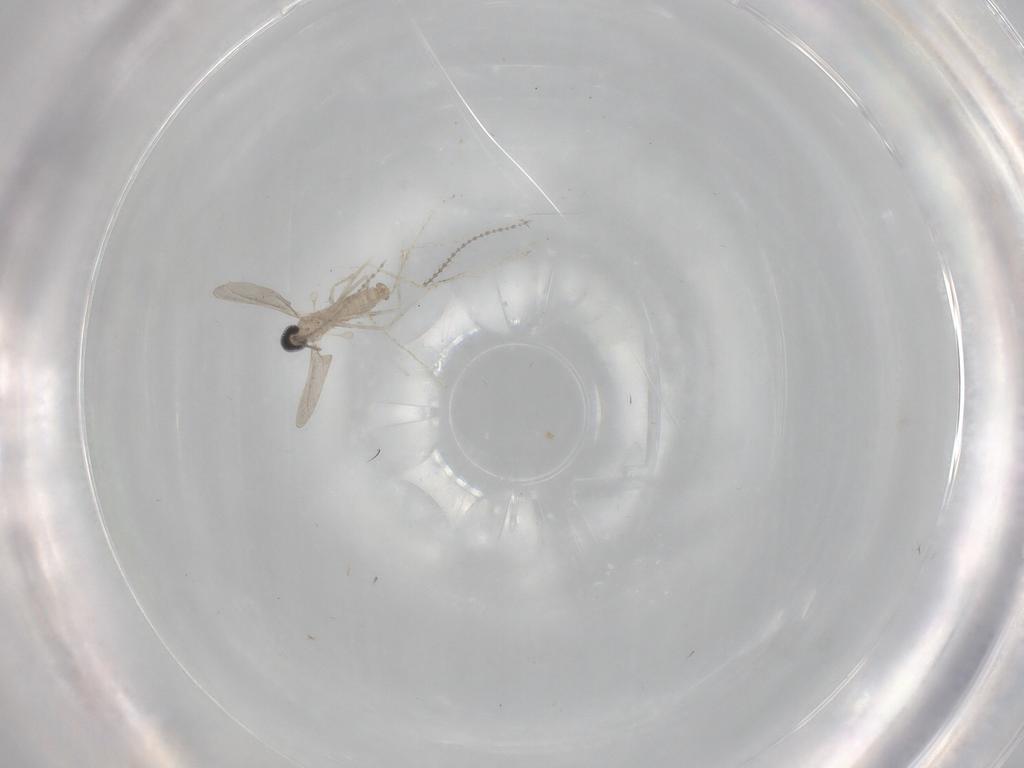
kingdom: Animalia
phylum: Arthropoda
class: Insecta
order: Diptera
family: Cecidomyiidae
